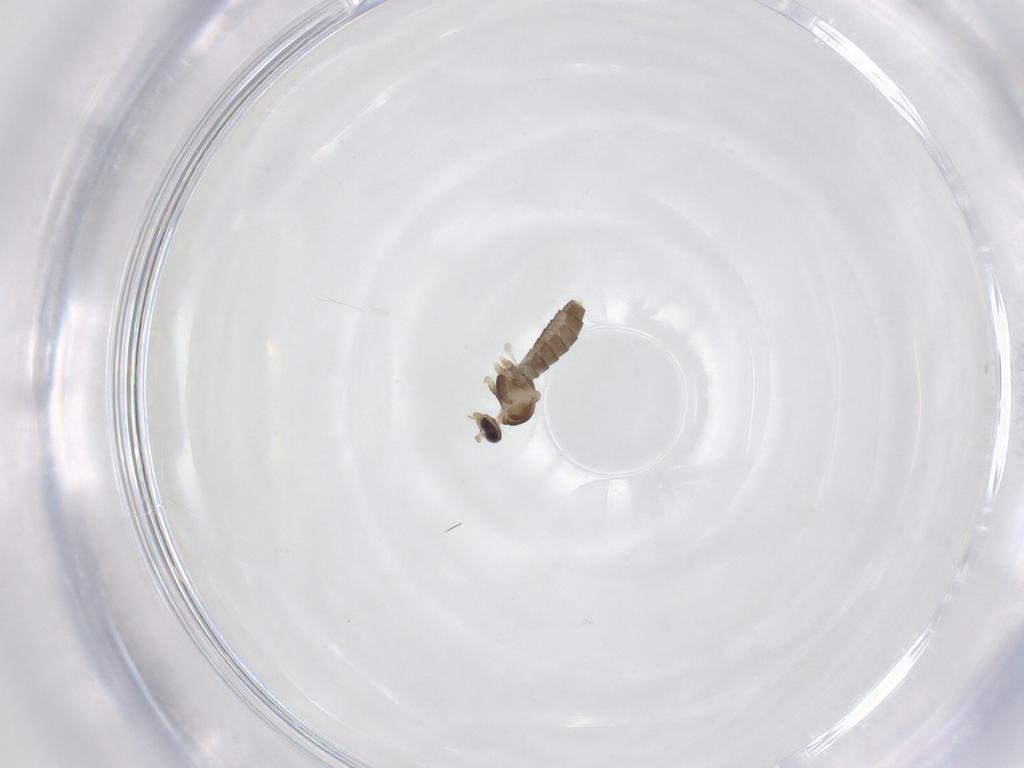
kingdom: Animalia
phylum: Arthropoda
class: Insecta
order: Diptera
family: Cecidomyiidae
